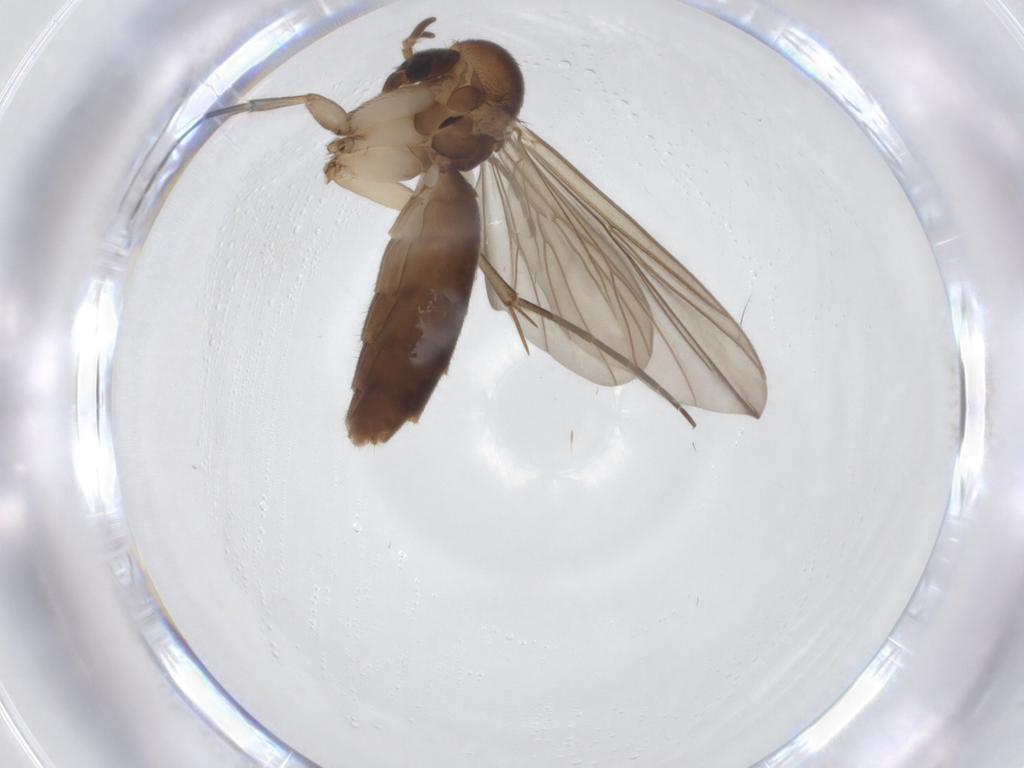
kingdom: Animalia
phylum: Arthropoda
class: Insecta
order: Diptera
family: Mycetophilidae
